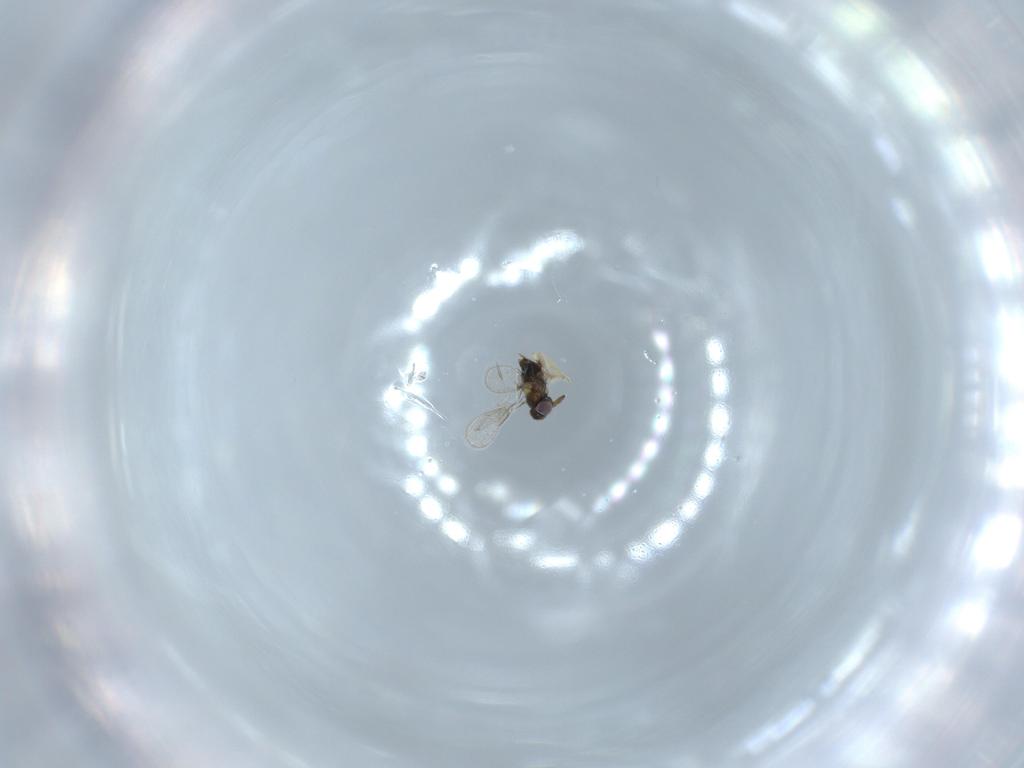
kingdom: Animalia
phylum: Arthropoda
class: Insecta
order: Hymenoptera
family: Aphelinidae
